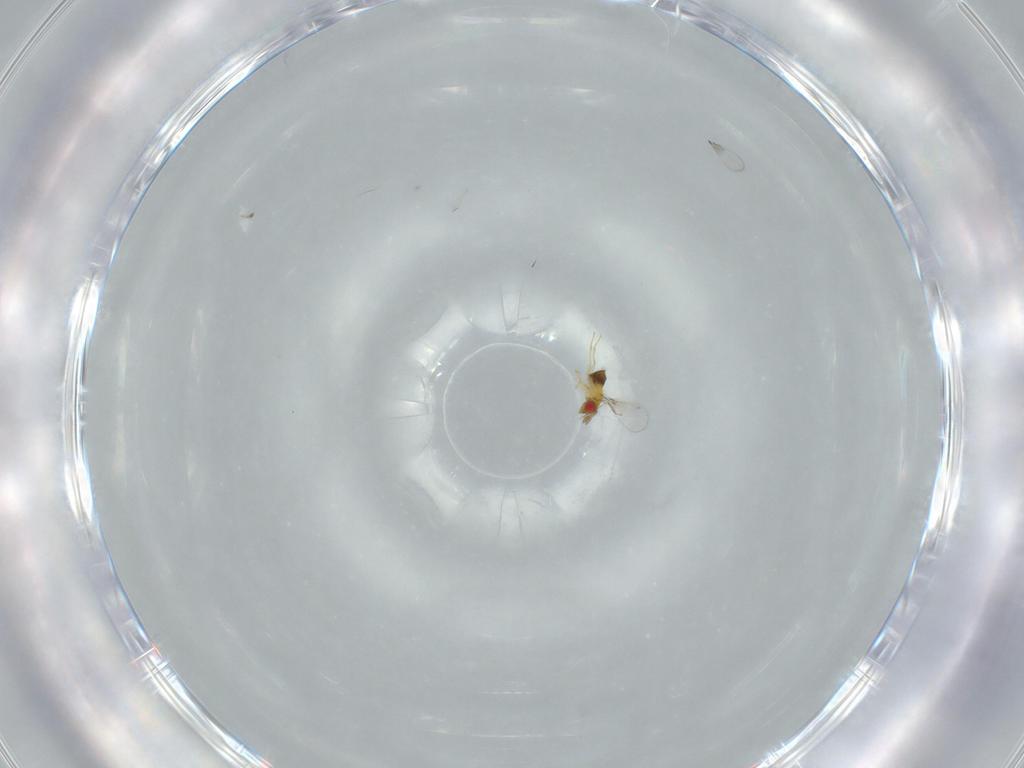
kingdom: Animalia
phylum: Arthropoda
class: Insecta
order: Hymenoptera
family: Trichogrammatidae
